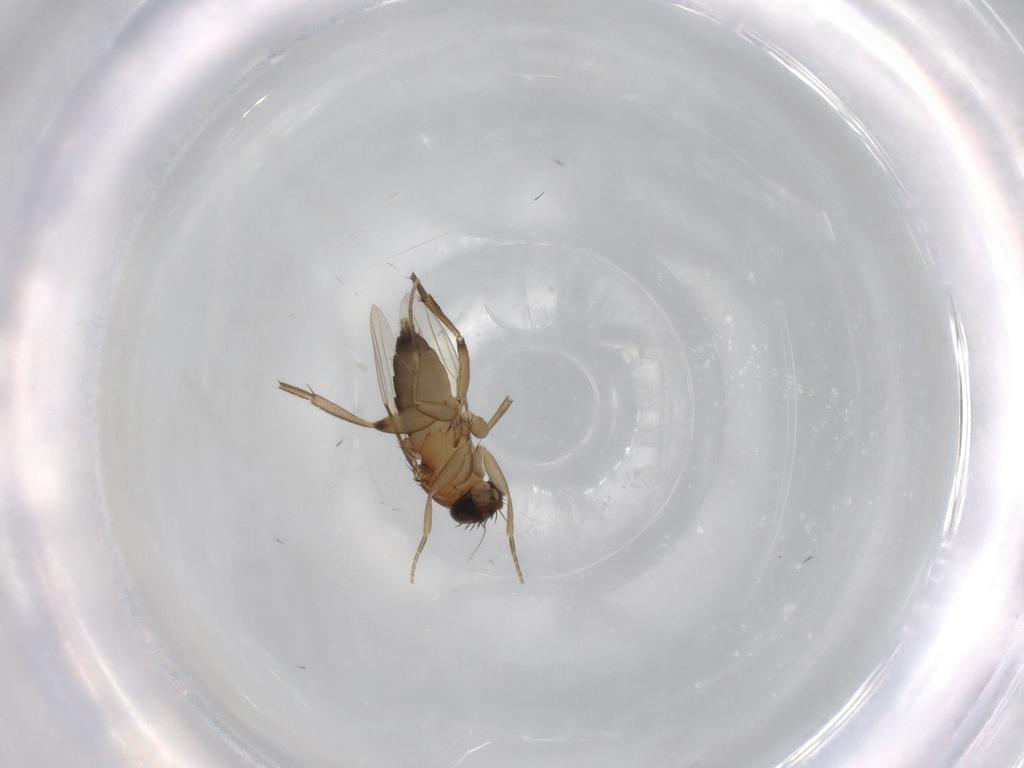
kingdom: Animalia
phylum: Arthropoda
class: Insecta
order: Diptera
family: Phoridae
